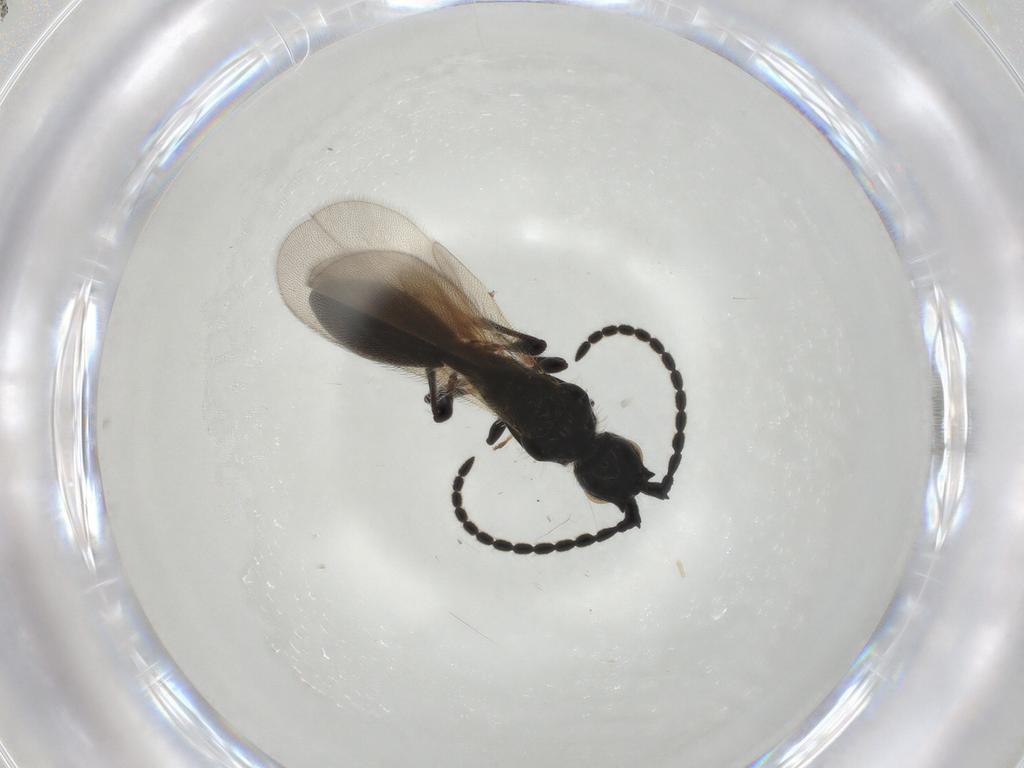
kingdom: Animalia
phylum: Arthropoda
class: Insecta
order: Hymenoptera
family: Diapriidae
